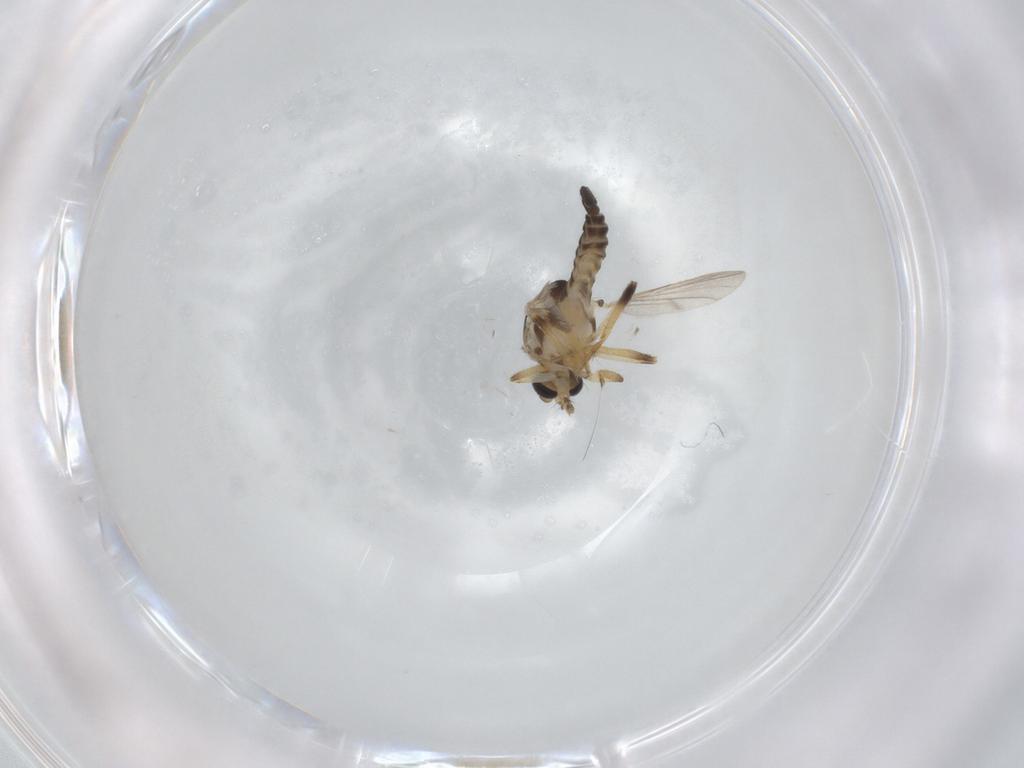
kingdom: Animalia
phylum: Arthropoda
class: Insecta
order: Diptera
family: Ceratopogonidae
